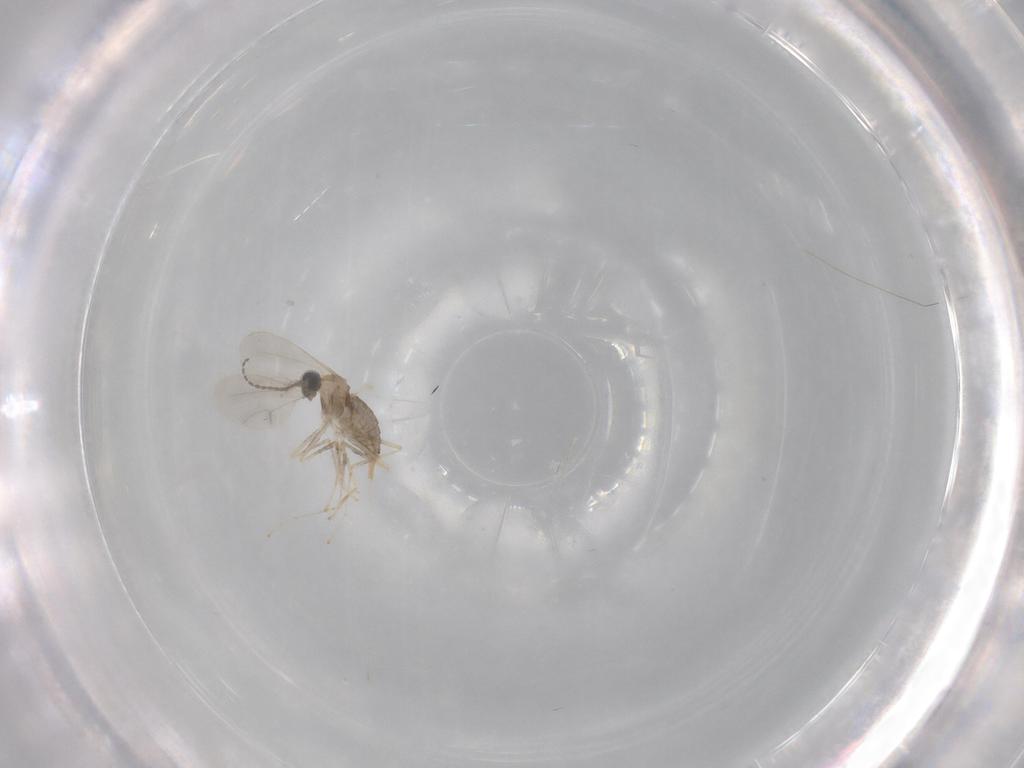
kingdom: Animalia
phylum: Arthropoda
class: Insecta
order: Diptera
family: Cecidomyiidae
